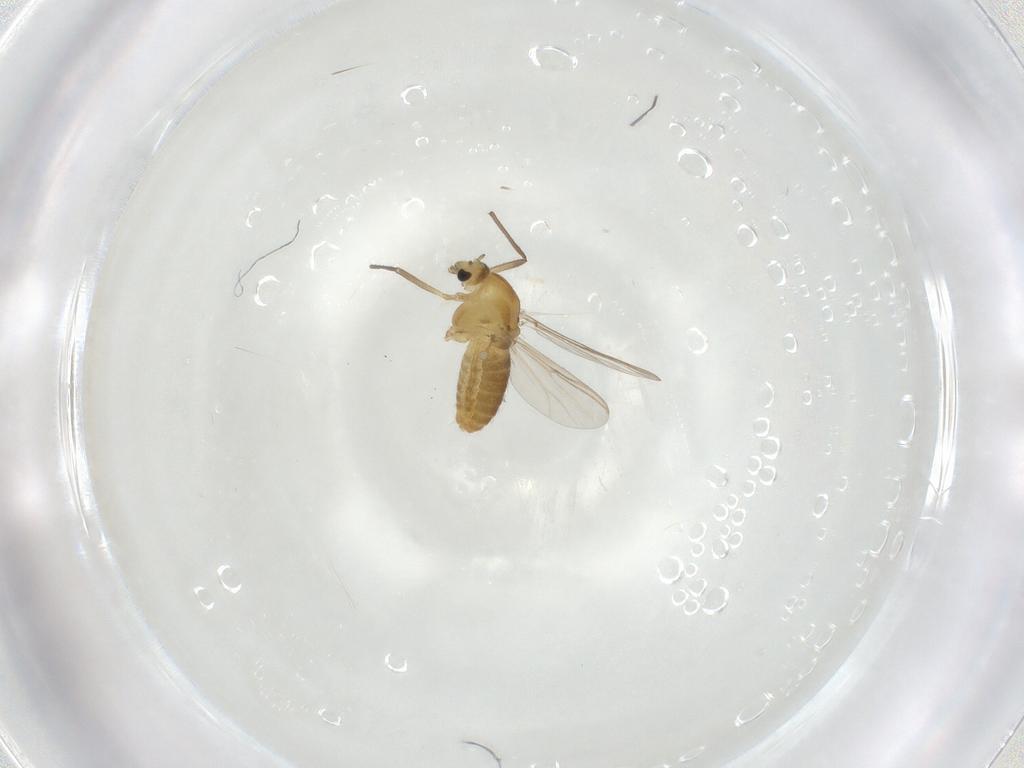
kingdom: Animalia
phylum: Arthropoda
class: Insecta
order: Diptera
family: Chironomidae
